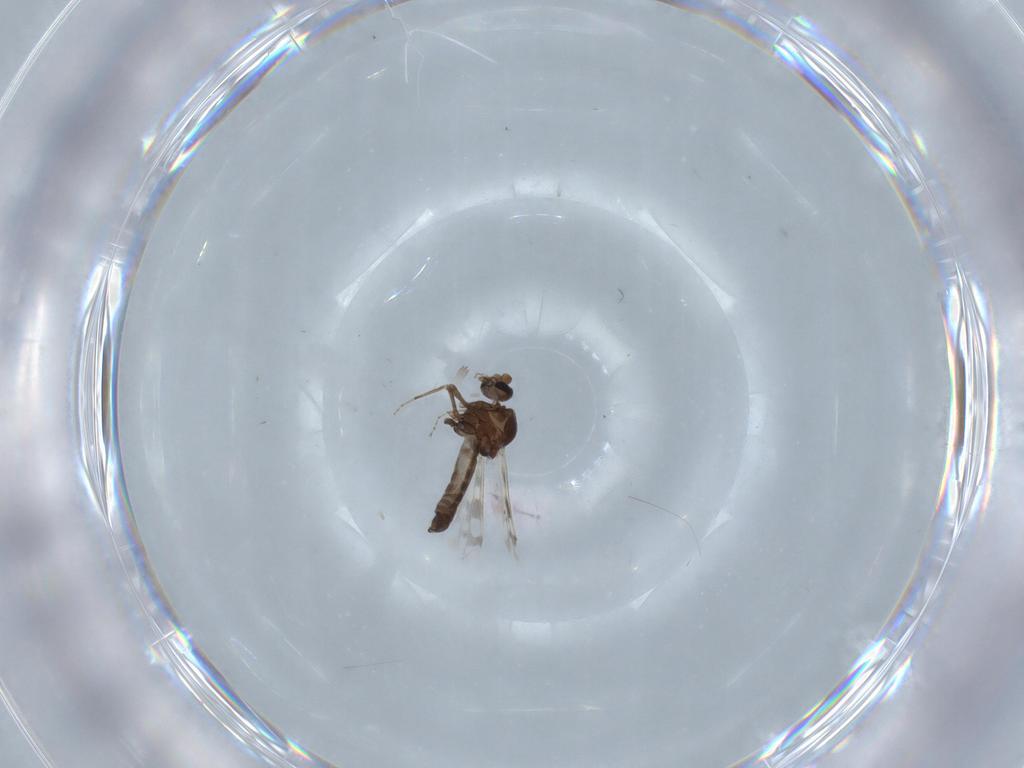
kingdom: Animalia
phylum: Arthropoda
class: Insecta
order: Diptera
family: Ceratopogonidae
